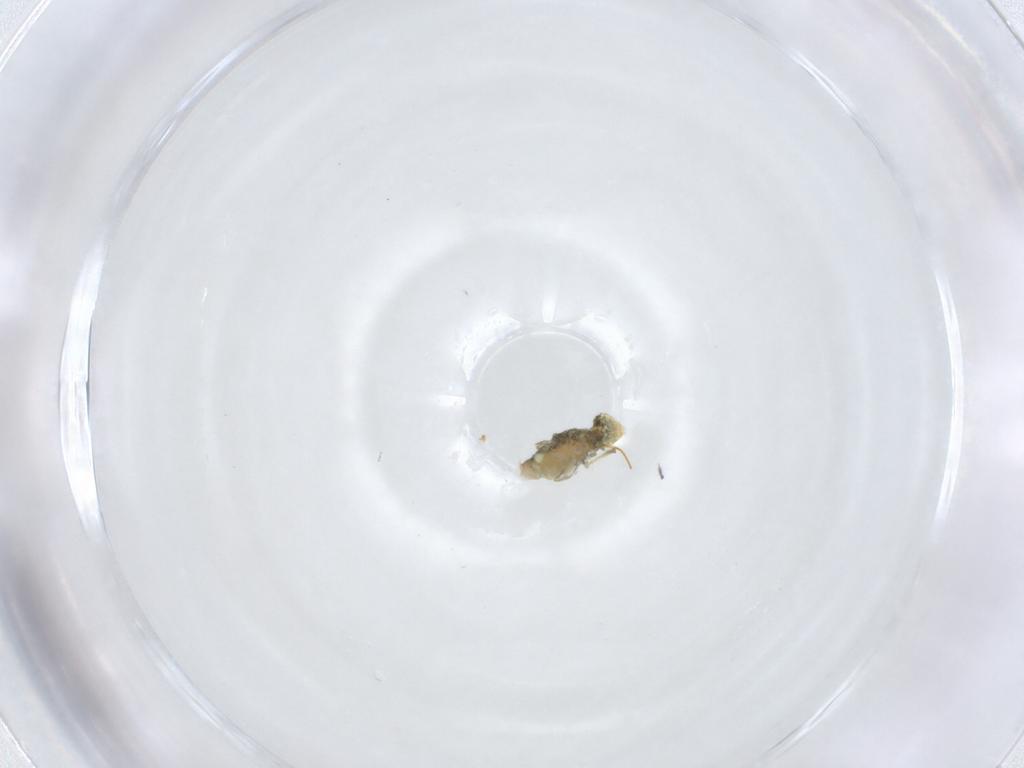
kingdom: Animalia
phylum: Arthropoda
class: Collembola
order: Symphypleona
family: Katiannidae
